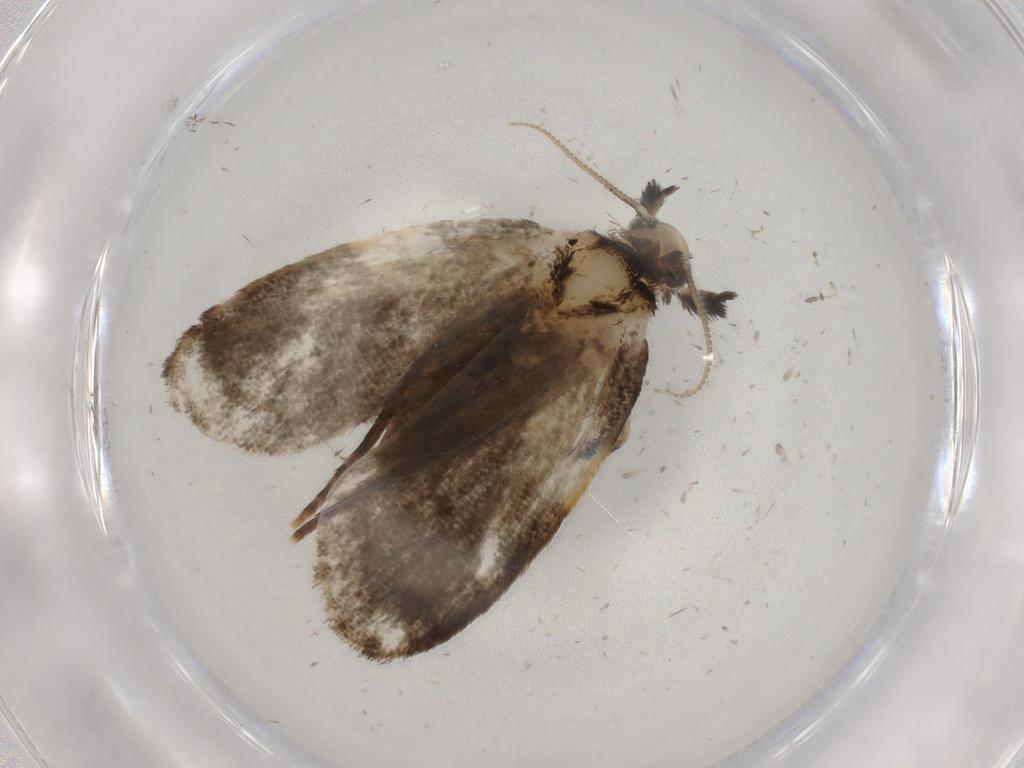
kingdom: Animalia
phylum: Arthropoda
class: Insecta
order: Lepidoptera
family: Psychidae
